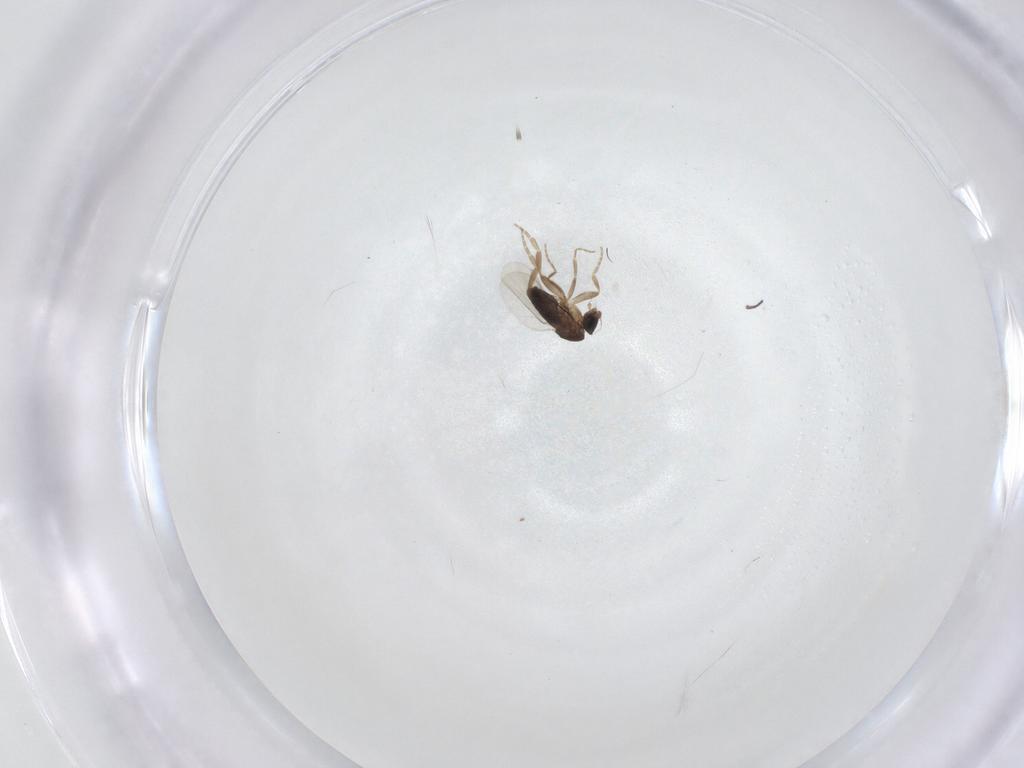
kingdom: Animalia
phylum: Arthropoda
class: Insecta
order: Diptera
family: Phoridae
